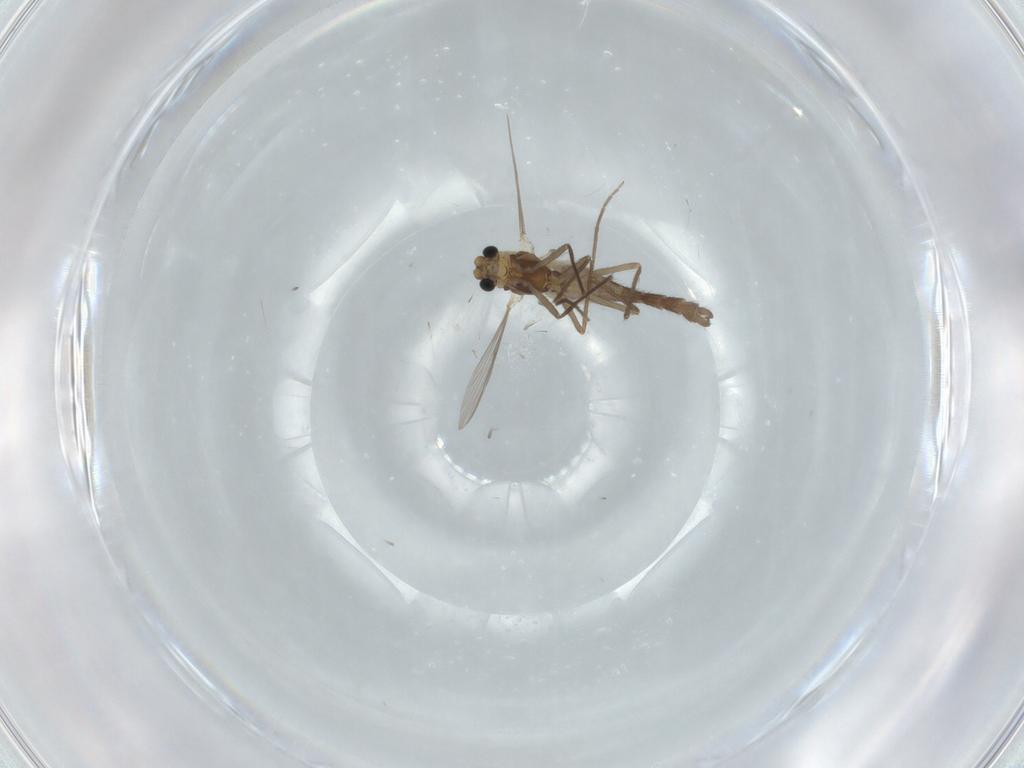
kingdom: Animalia
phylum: Arthropoda
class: Insecta
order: Diptera
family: Chironomidae
